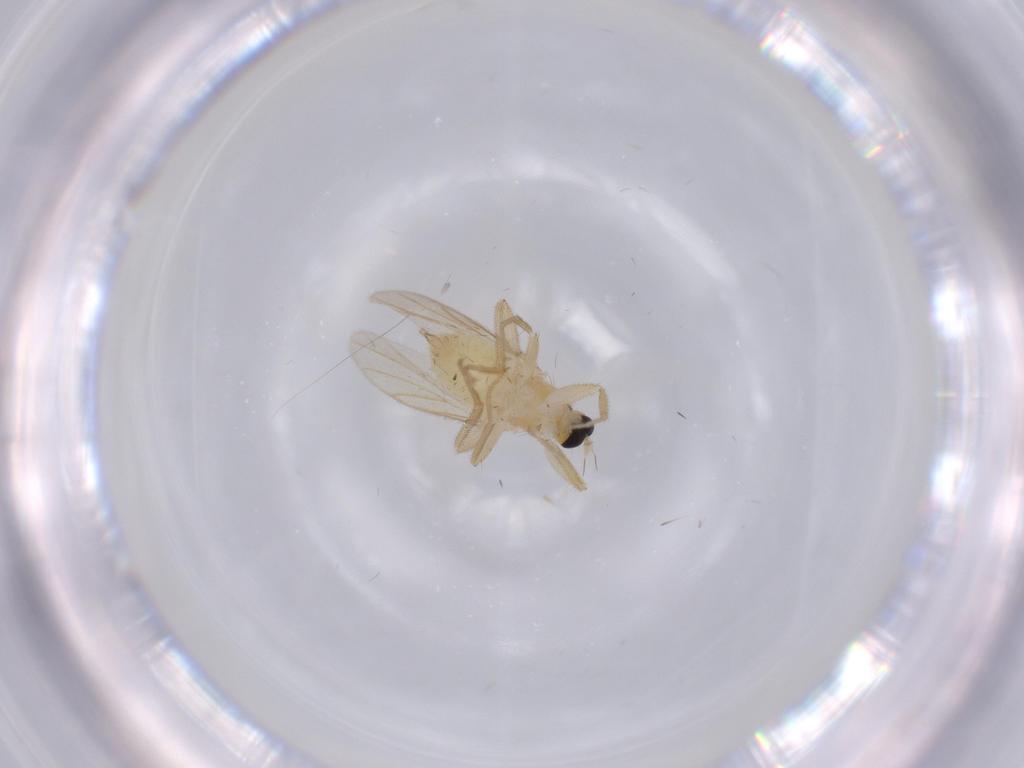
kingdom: Animalia
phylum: Arthropoda
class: Insecta
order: Diptera
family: Hybotidae
